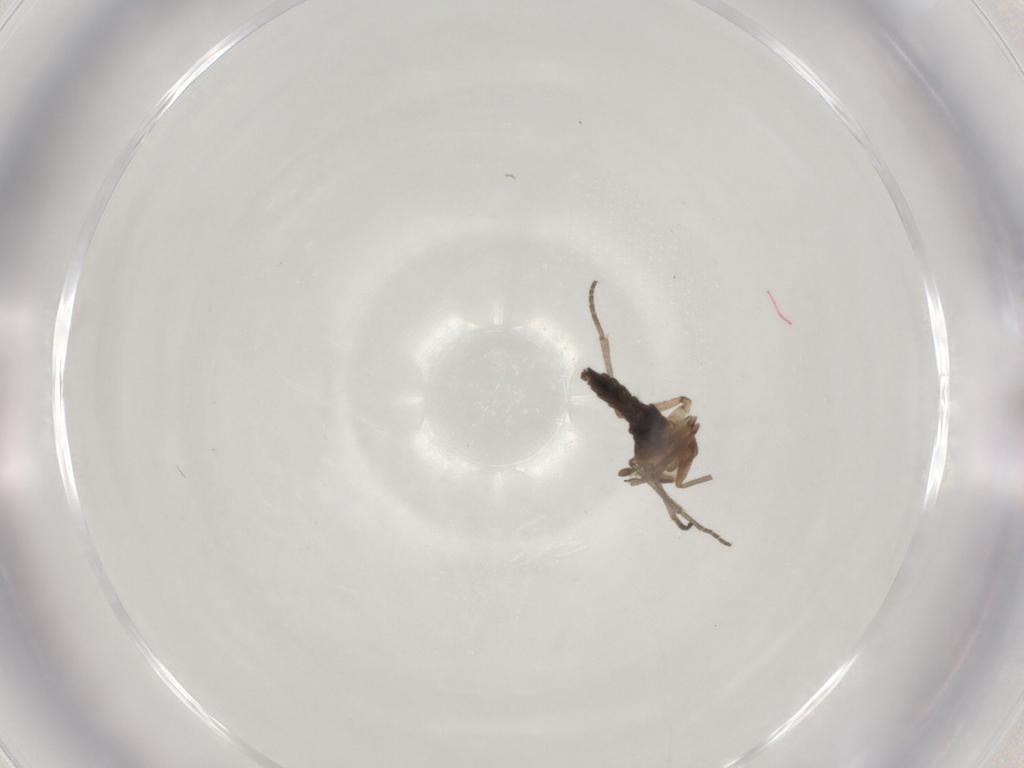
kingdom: Animalia
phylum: Arthropoda
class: Insecta
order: Diptera
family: Sciaridae
